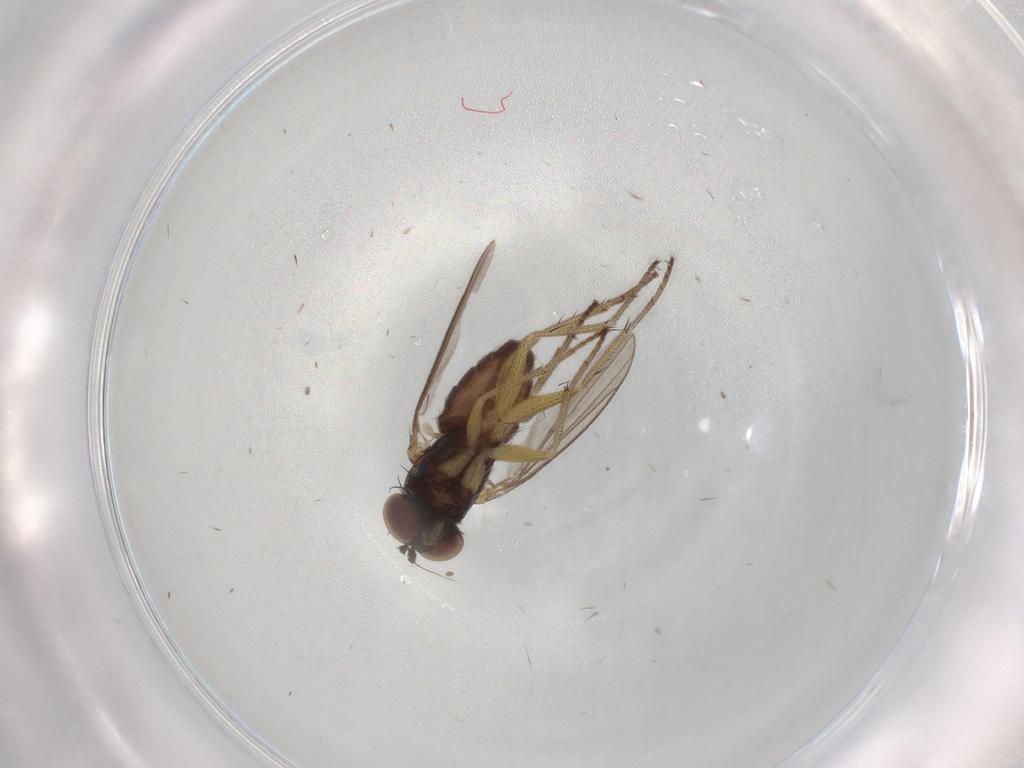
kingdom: Animalia
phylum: Arthropoda
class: Insecta
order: Diptera
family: Dolichopodidae
